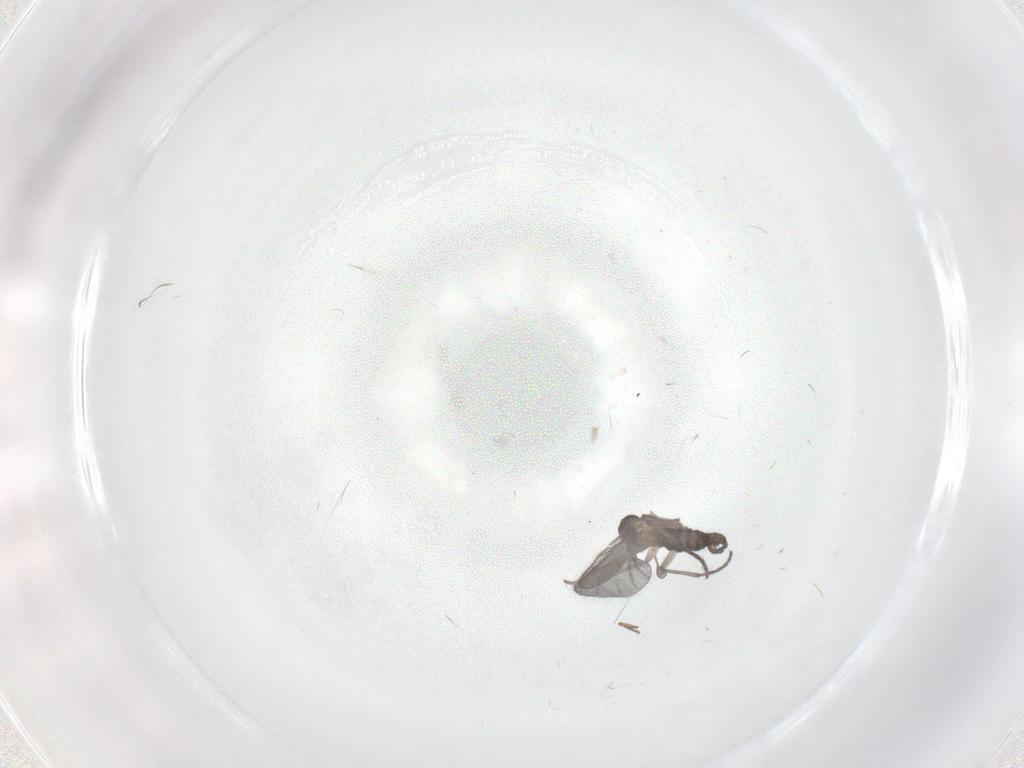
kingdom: Animalia
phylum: Arthropoda
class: Insecta
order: Diptera
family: Sciaridae
